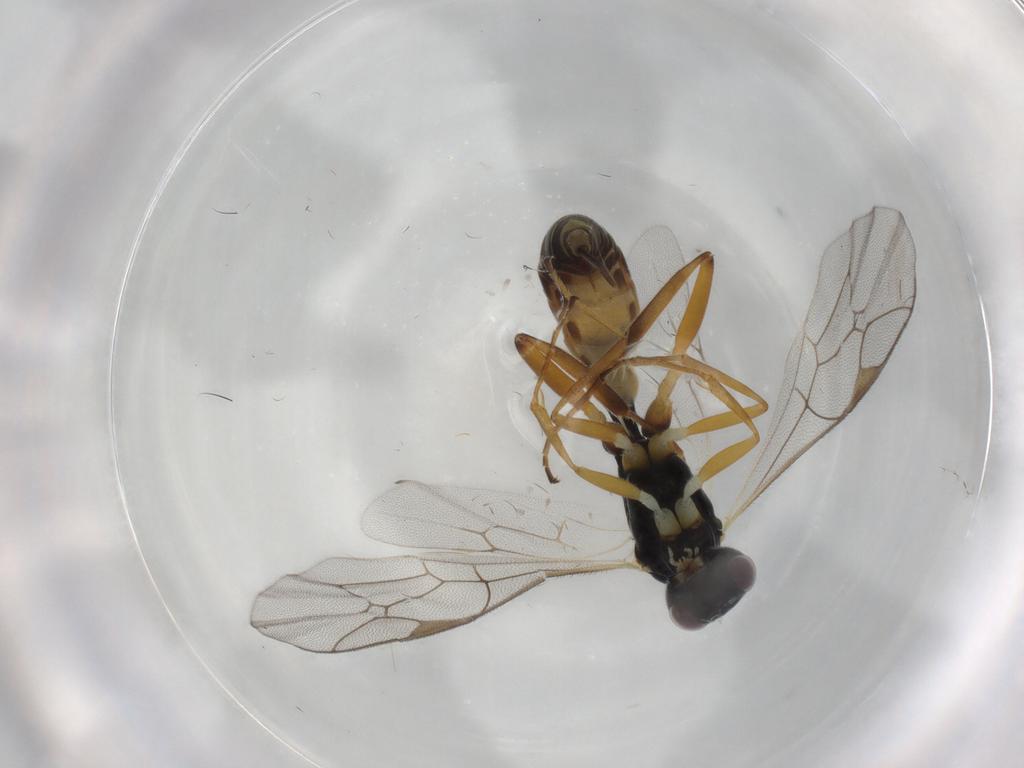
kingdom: Animalia
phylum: Arthropoda
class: Insecta
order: Hymenoptera
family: Ichneumonidae
